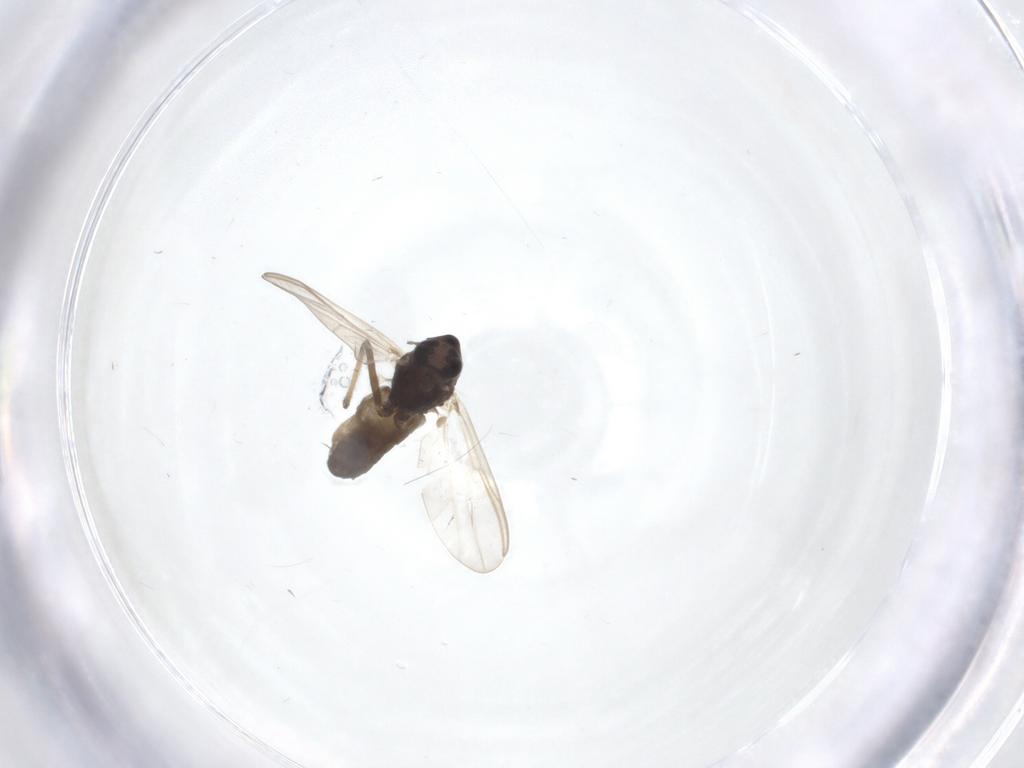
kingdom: Animalia
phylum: Arthropoda
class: Insecta
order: Diptera
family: Chironomidae
